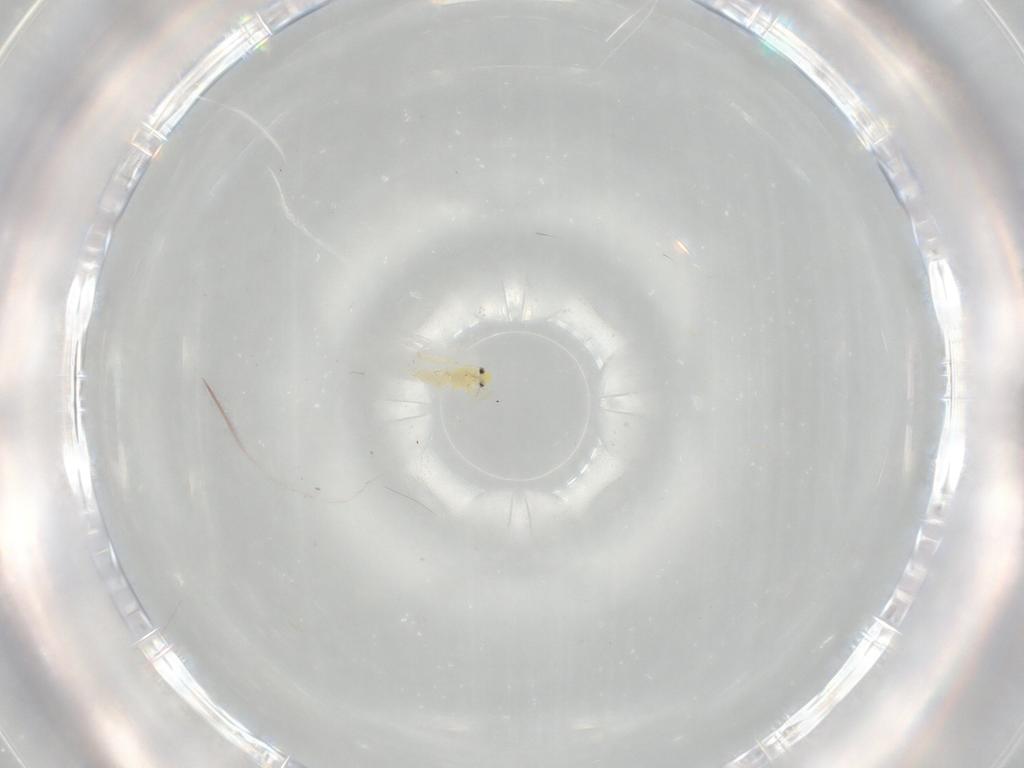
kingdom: Animalia
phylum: Arthropoda
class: Insecta
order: Hemiptera
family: Aleyrodidae
